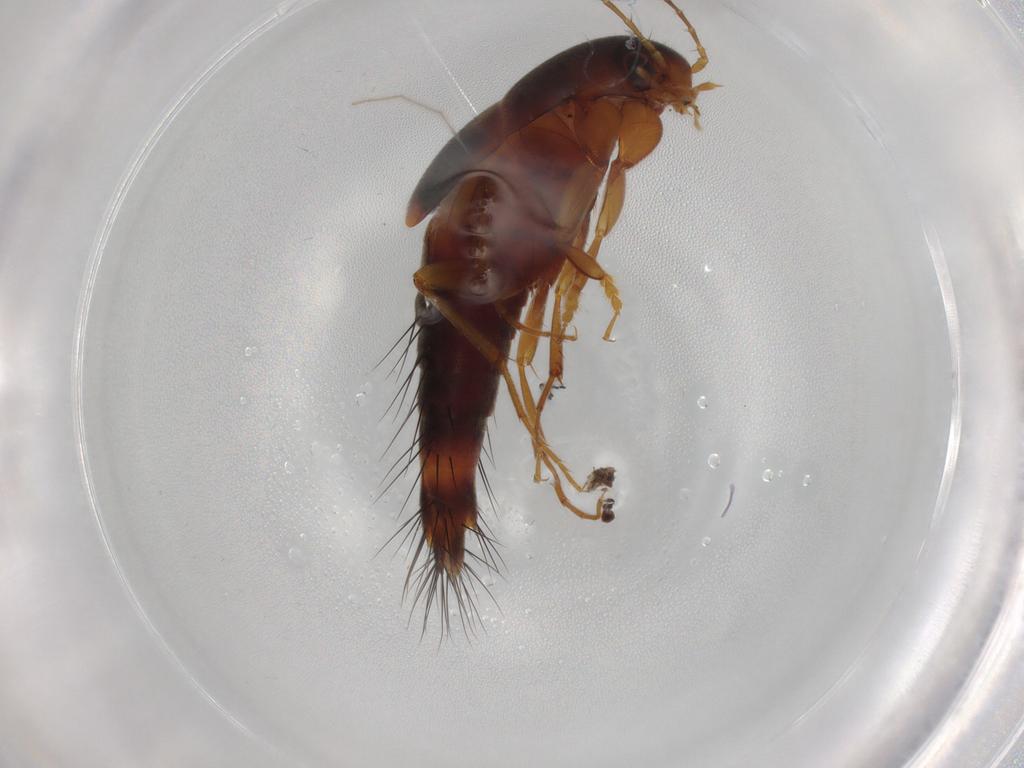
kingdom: Animalia
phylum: Arthropoda
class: Insecta
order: Coleoptera
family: Staphylinidae
